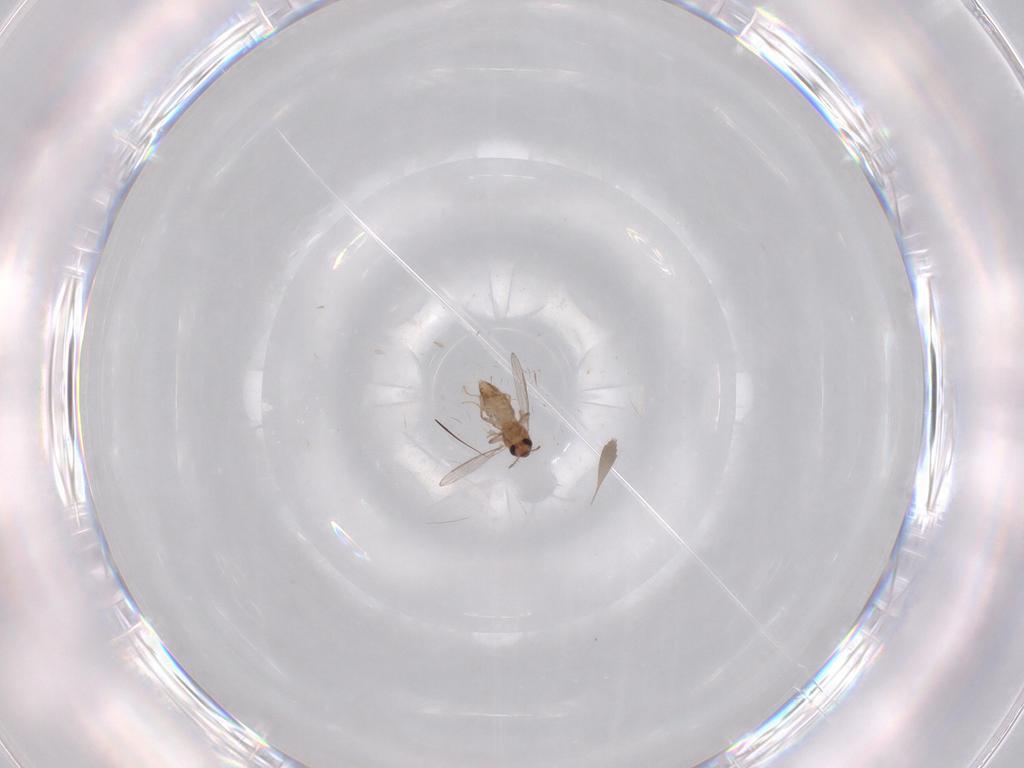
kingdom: Animalia
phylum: Arthropoda
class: Insecta
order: Diptera
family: Chironomidae
